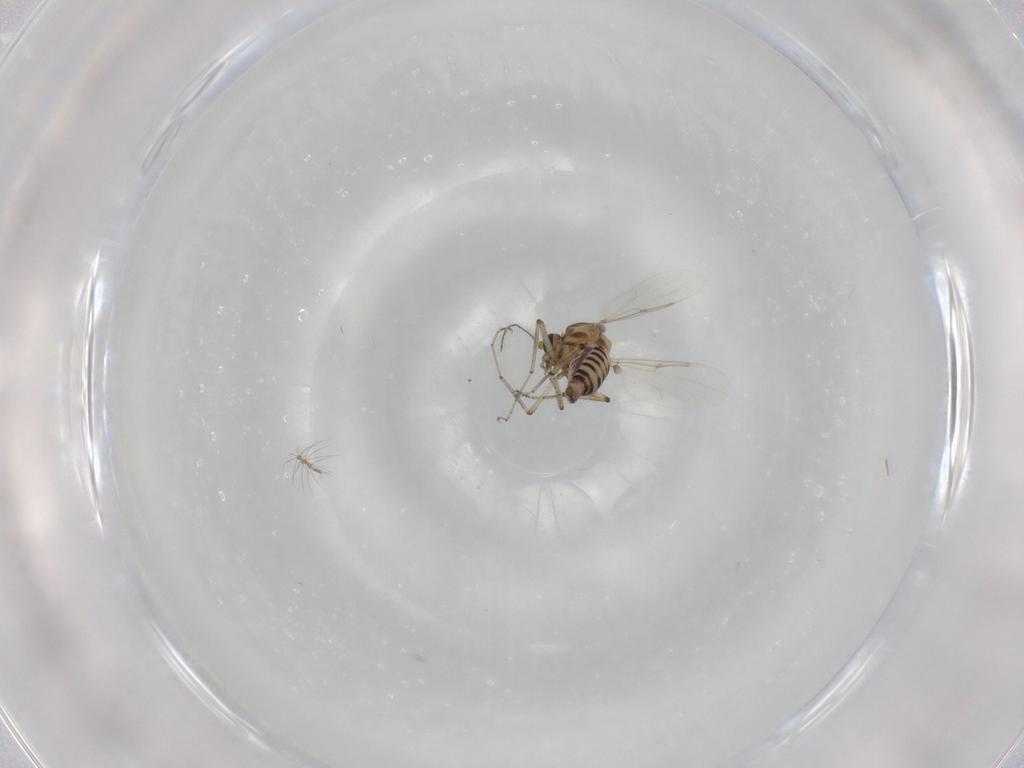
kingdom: Animalia
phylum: Arthropoda
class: Insecta
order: Diptera
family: Ceratopogonidae
